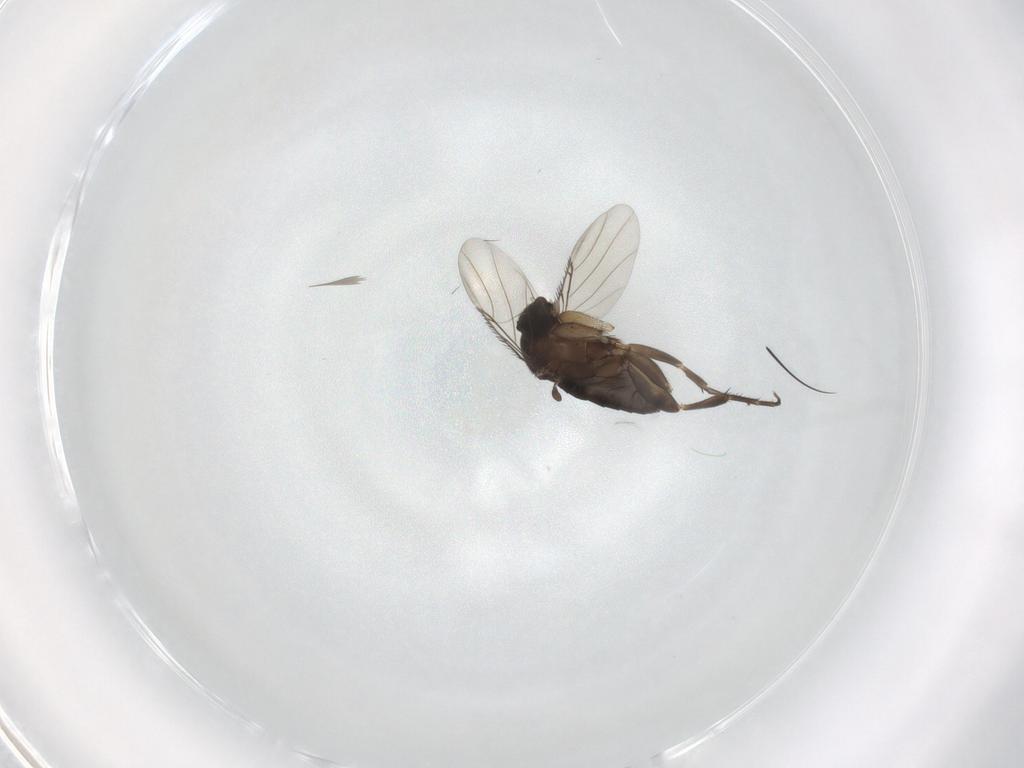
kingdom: Animalia
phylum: Arthropoda
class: Insecta
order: Diptera
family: Phoridae
